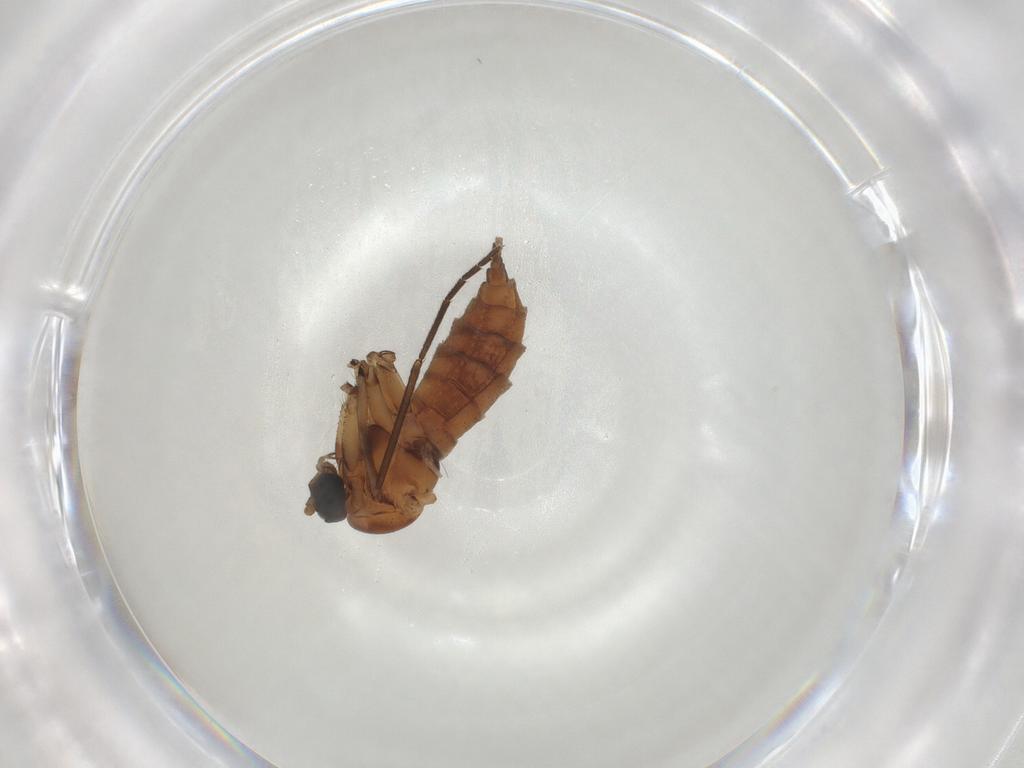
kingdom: Animalia
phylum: Arthropoda
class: Insecta
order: Diptera
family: Sciaridae
